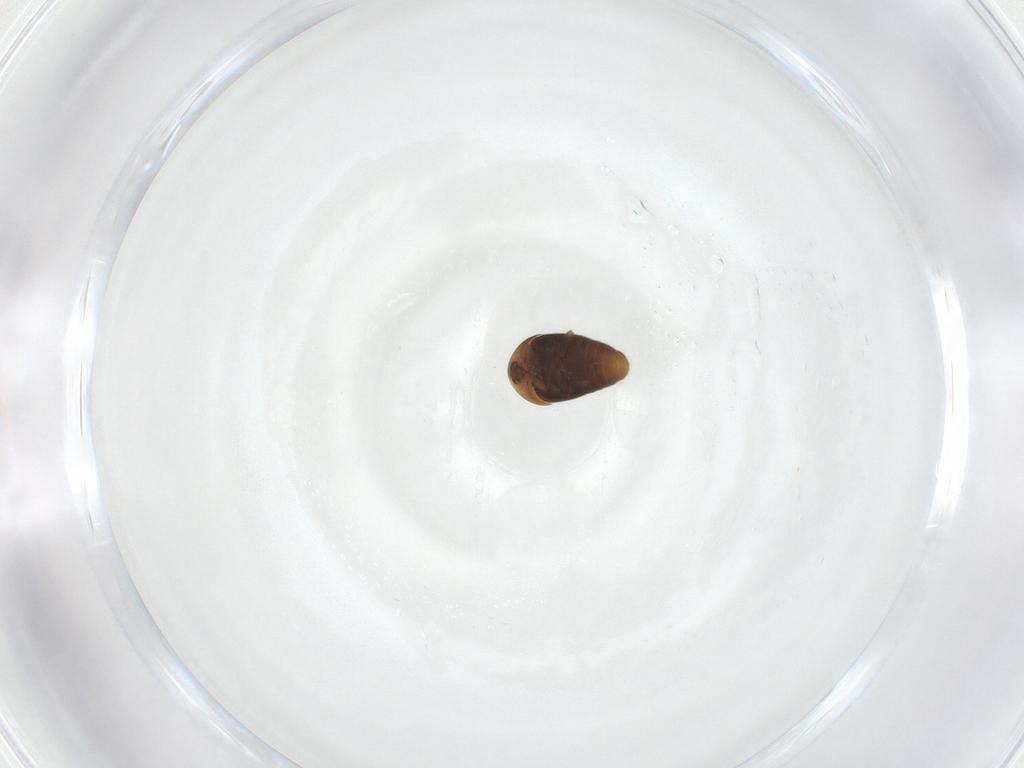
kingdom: Animalia
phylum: Arthropoda
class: Insecta
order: Coleoptera
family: Corylophidae
